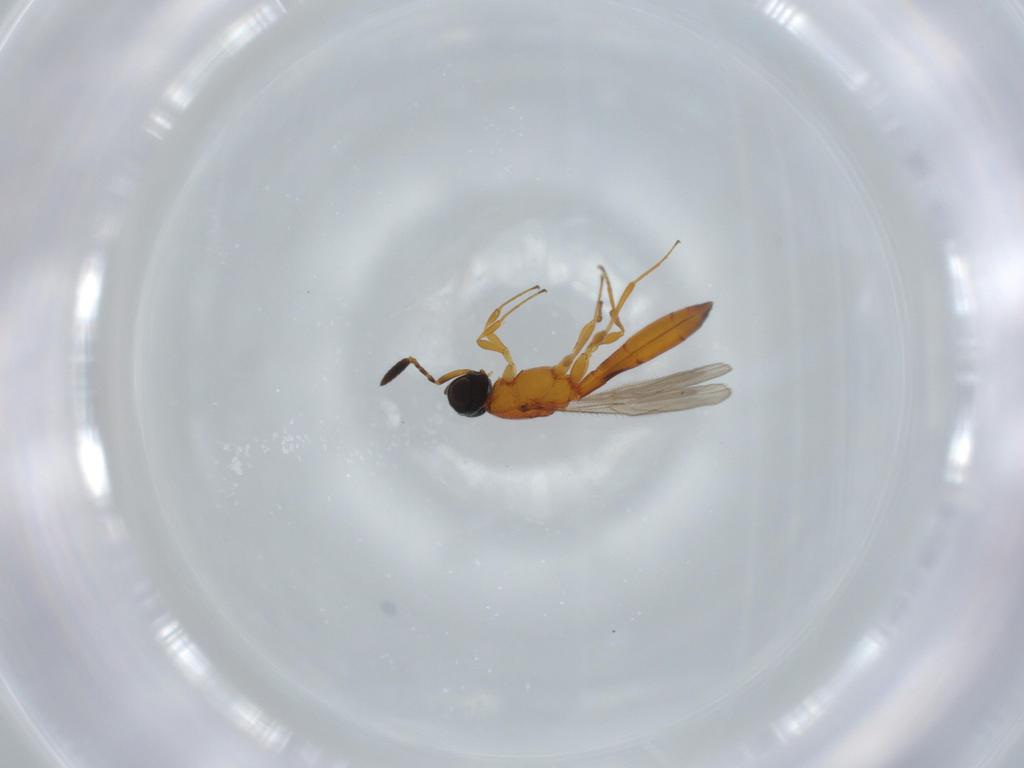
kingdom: Animalia
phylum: Arthropoda
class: Insecta
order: Hymenoptera
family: Scelionidae
